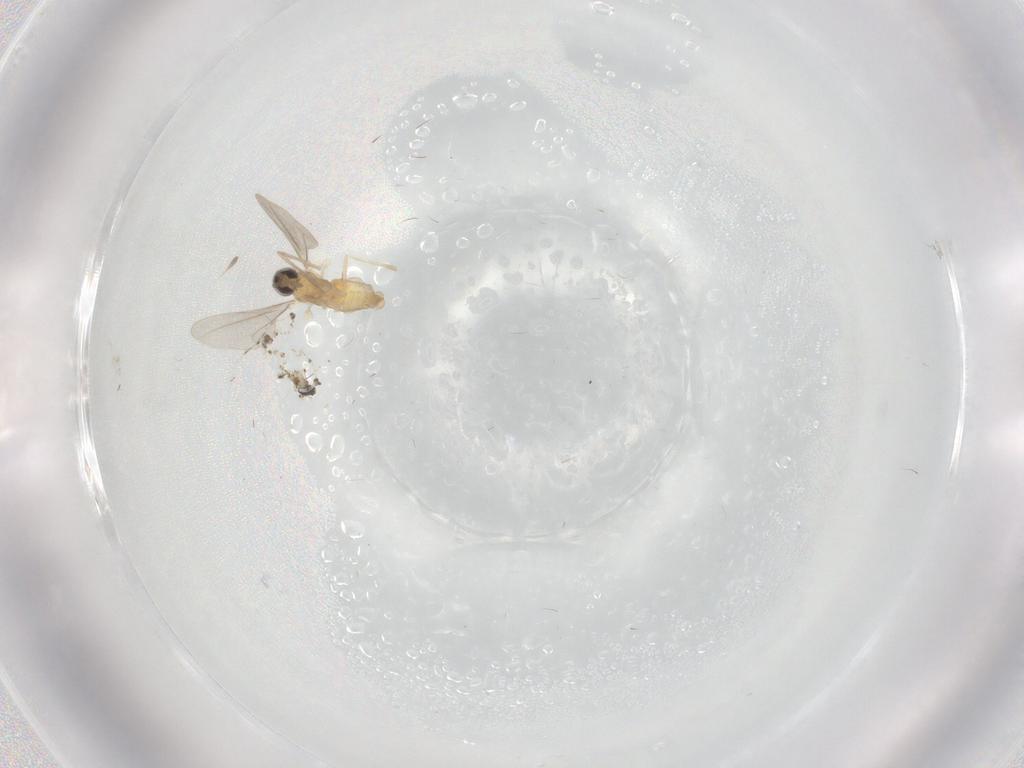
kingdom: Animalia
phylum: Arthropoda
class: Insecta
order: Diptera
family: Cecidomyiidae
